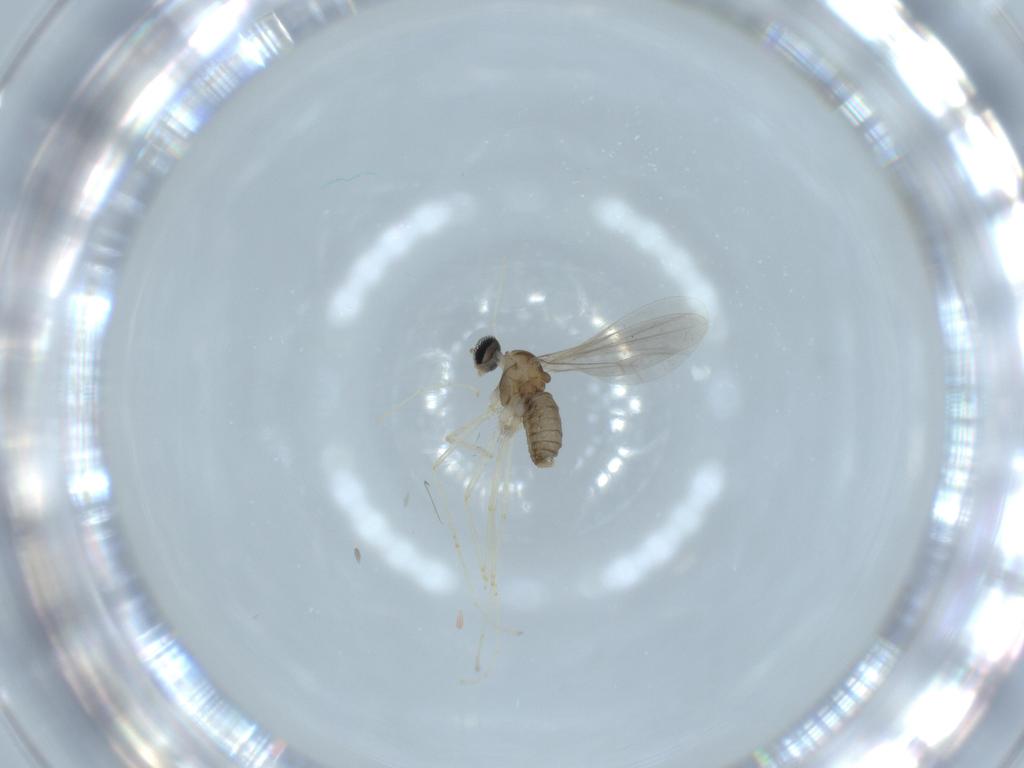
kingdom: Animalia
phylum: Arthropoda
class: Insecta
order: Diptera
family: Cecidomyiidae
